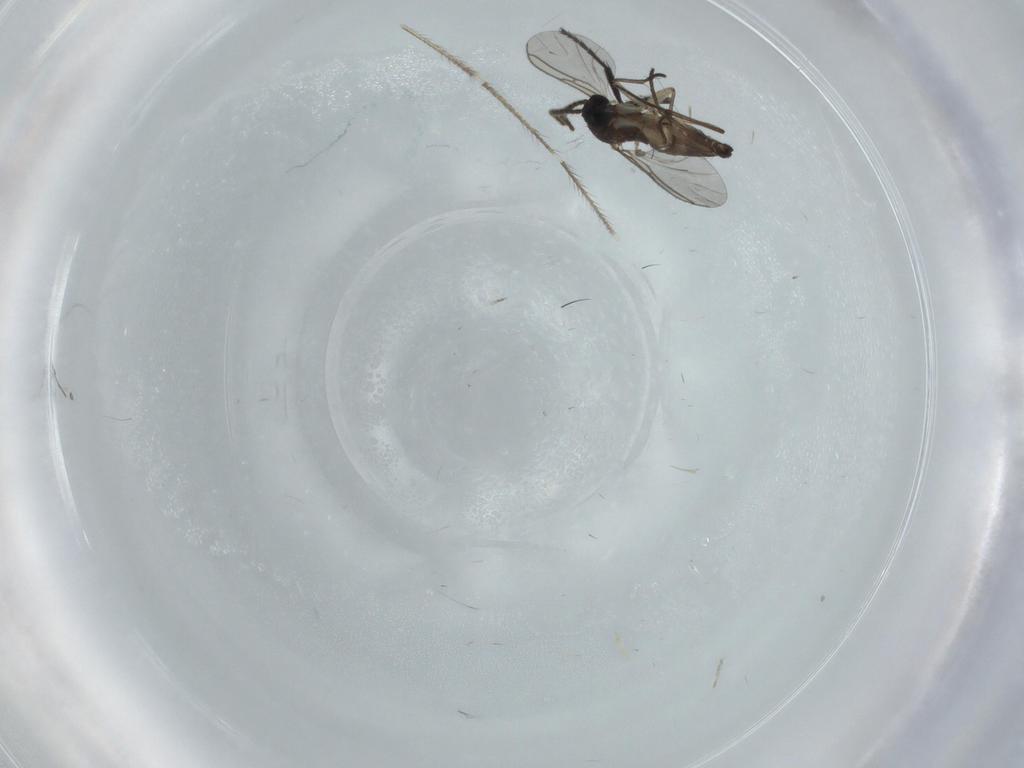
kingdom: Animalia
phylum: Arthropoda
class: Insecta
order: Diptera
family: Sciaridae
